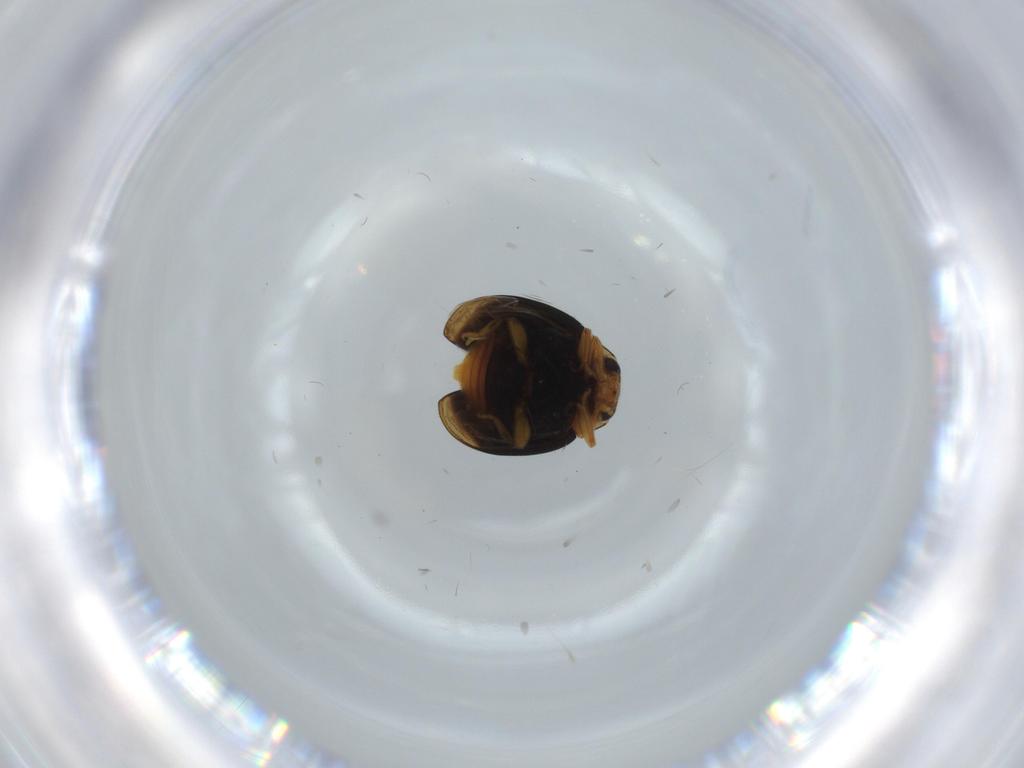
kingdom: Animalia
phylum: Arthropoda
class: Insecta
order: Coleoptera
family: Coccinellidae
